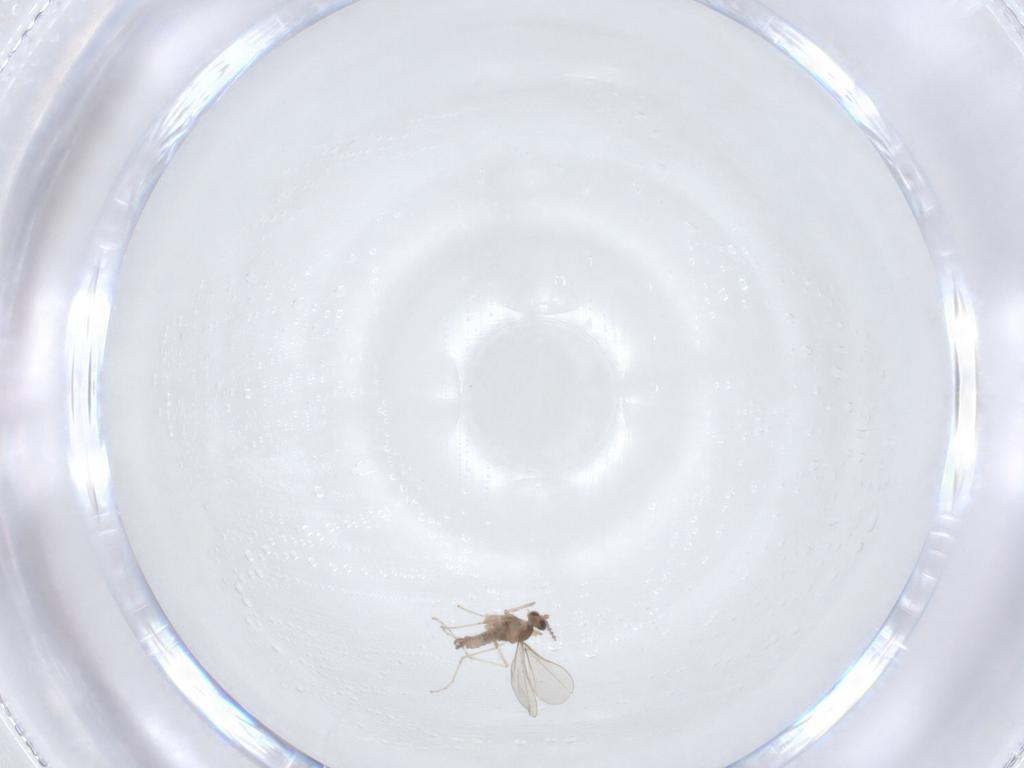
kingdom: Animalia
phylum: Arthropoda
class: Insecta
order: Diptera
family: Cecidomyiidae
